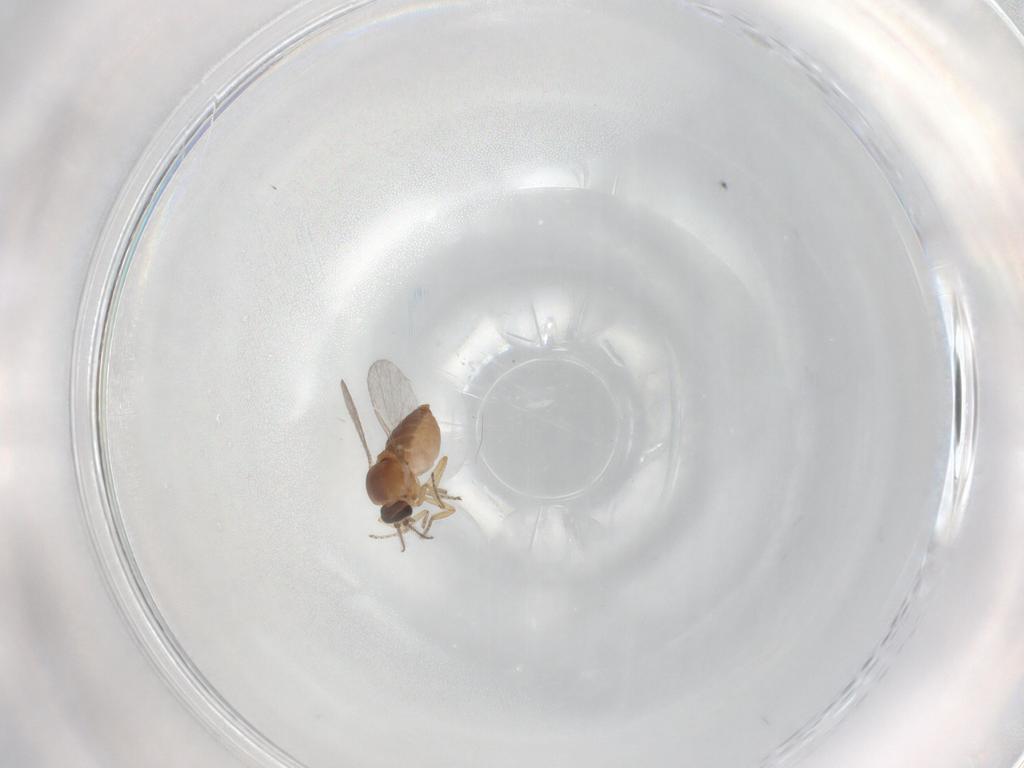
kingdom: Animalia
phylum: Arthropoda
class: Insecta
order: Diptera
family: Ceratopogonidae
